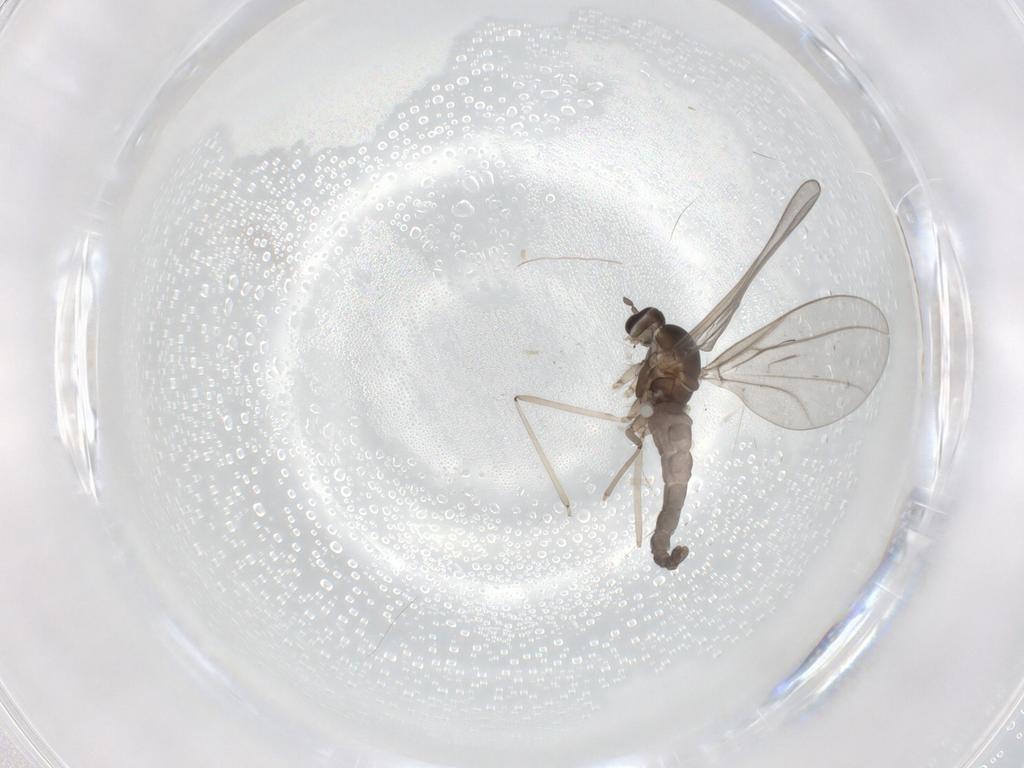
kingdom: Animalia
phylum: Arthropoda
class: Insecta
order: Diptera
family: Cecidomyiidae
